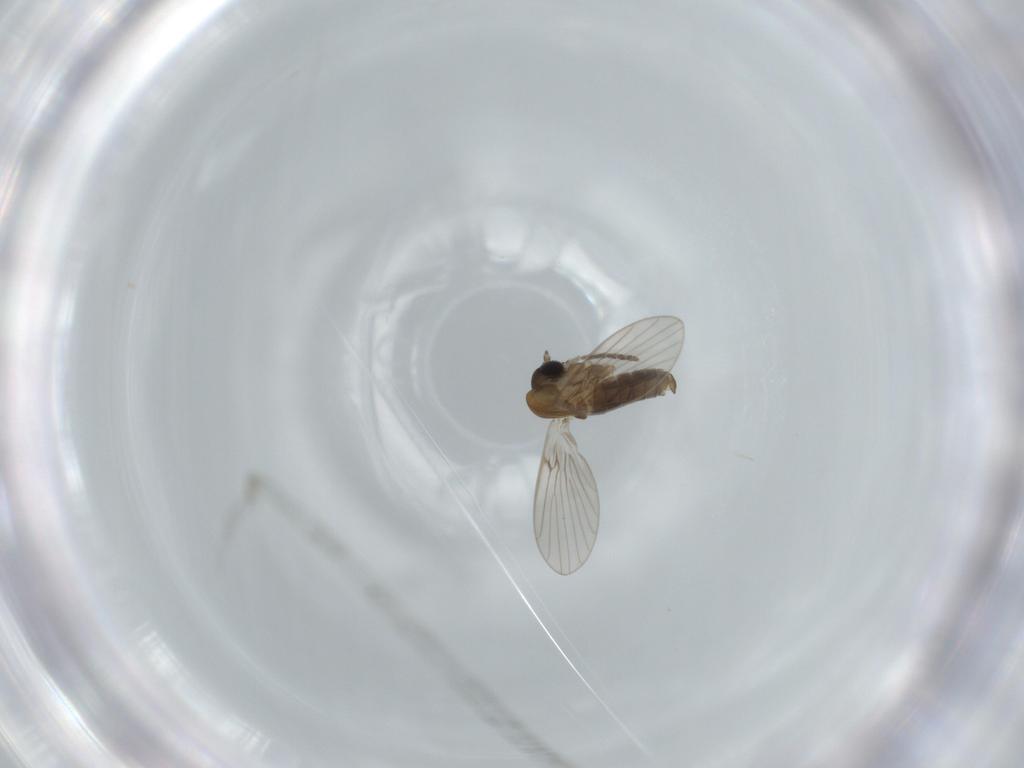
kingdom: Animalia
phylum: Arthropoda
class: Insecta
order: Diptera
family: Psychodidae
